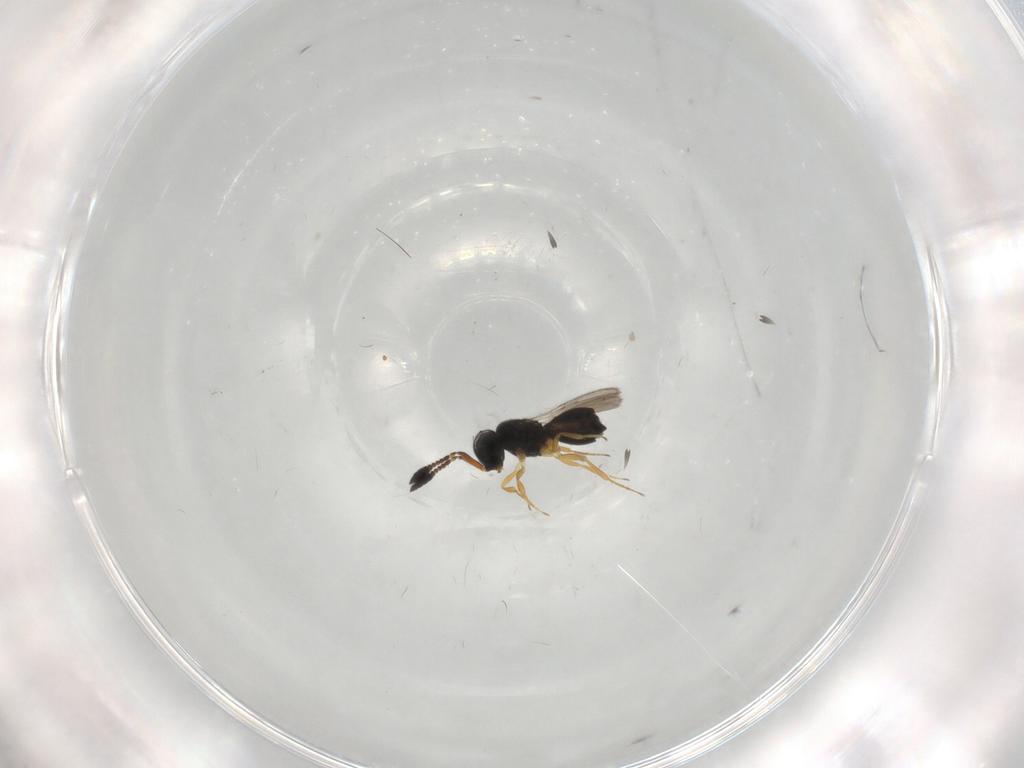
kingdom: Animalia
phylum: Arthropoda
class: Insecta
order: Hymenoptera
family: Scelionidae
